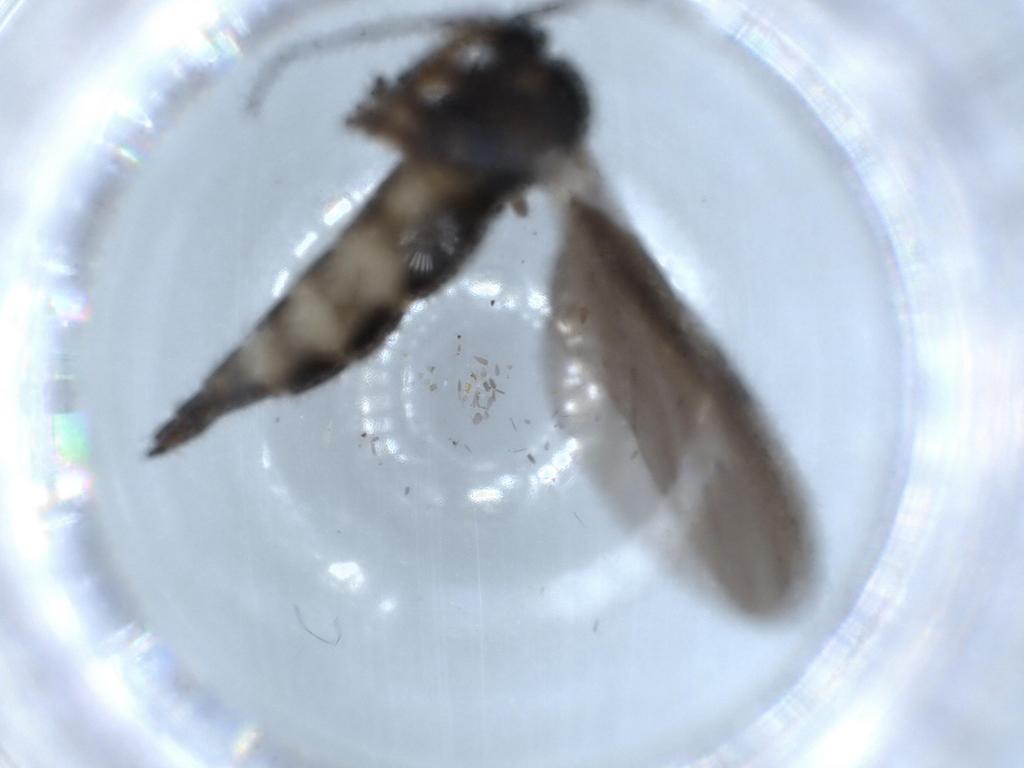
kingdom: Animalia
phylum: Arthropoda
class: Insecta
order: Diptera
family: Sciaridae
